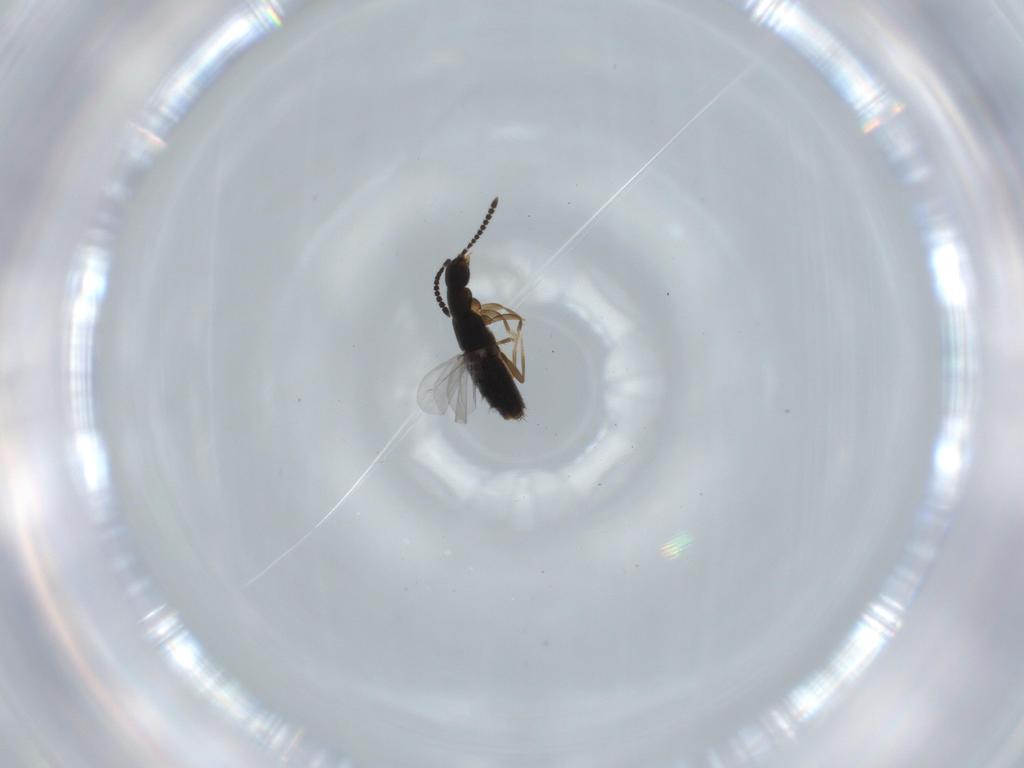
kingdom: Animalia
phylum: Arthropoda
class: Insecta
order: Coleoptera
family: Staphylinidae
